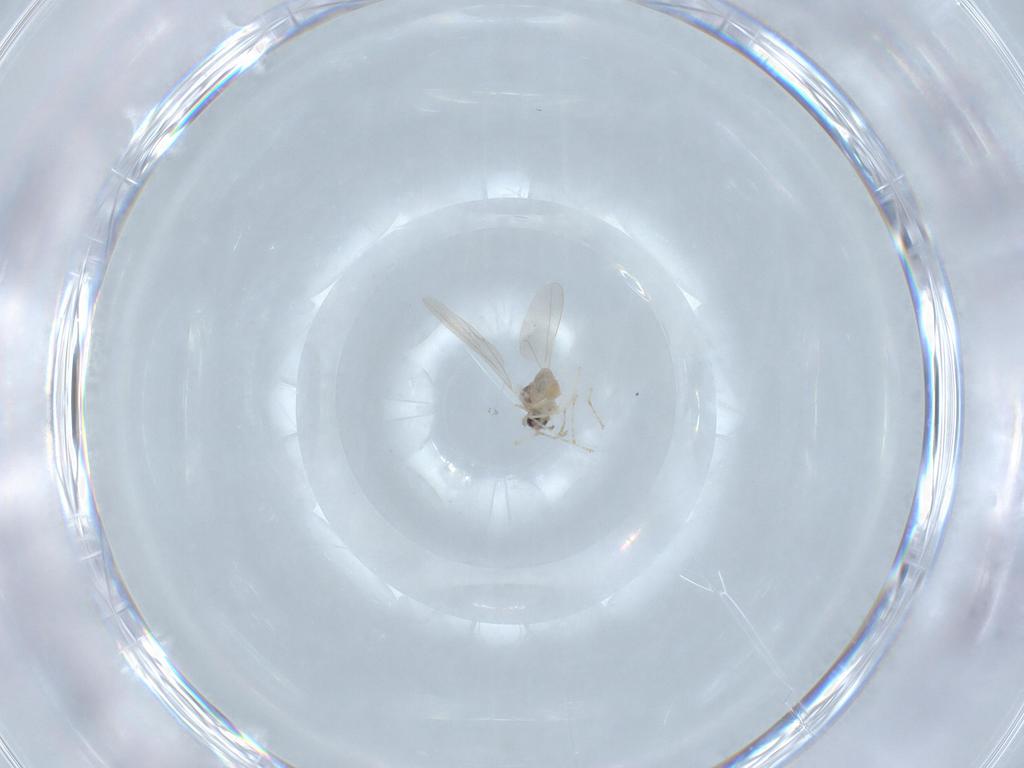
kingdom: Animalia
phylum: Arthropoda
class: Insecta
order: Diptera
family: Cecidomyiidae
